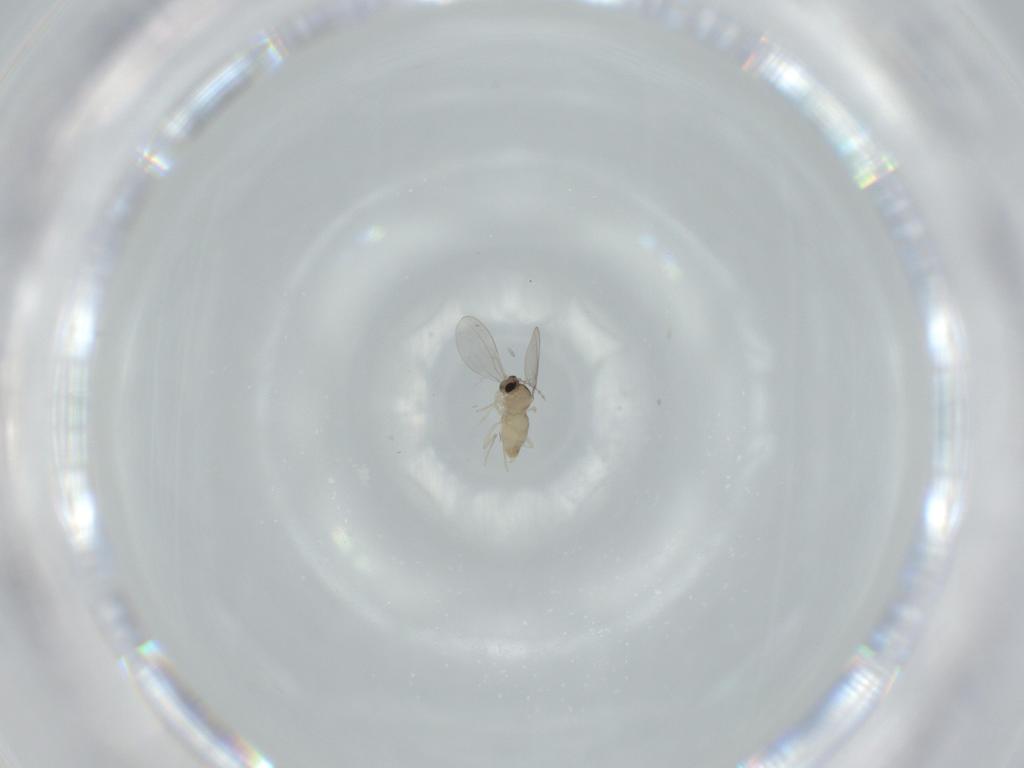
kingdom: Animalia
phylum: Arthropoda
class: Insecta
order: Diptera
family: Cecidomyiidae
